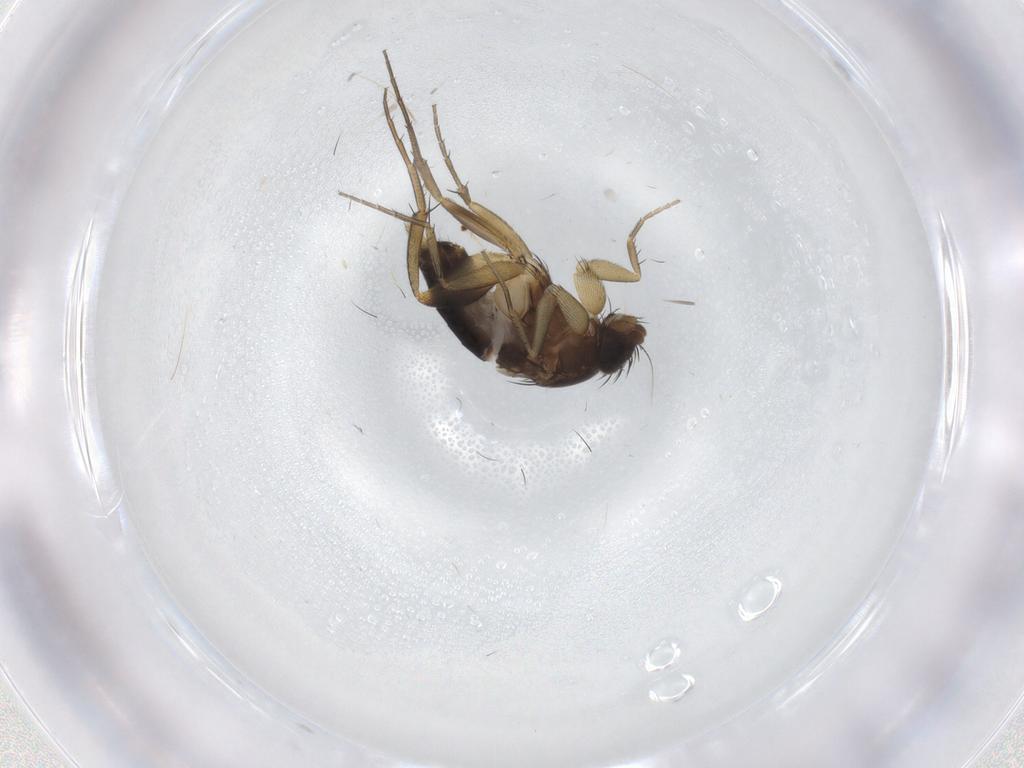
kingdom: Animalia
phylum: Arthropoda
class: Insecta
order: Diptera
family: Phoridae
